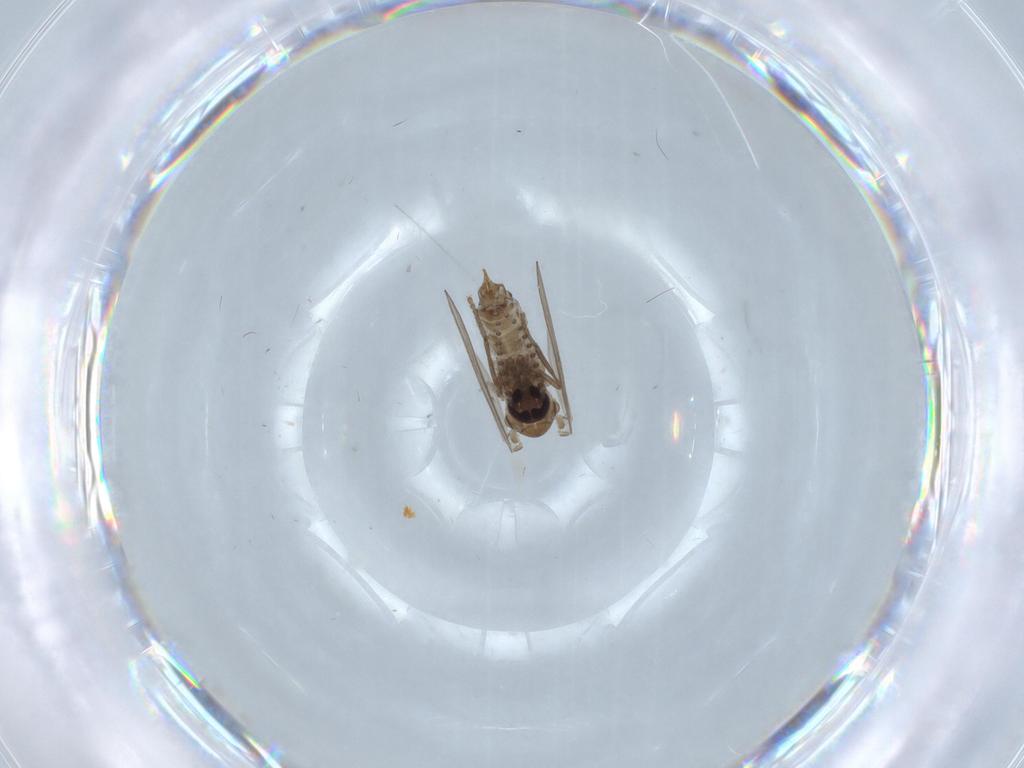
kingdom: Animalia
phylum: Arthropoda
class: Insecta
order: Diptera
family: Psychodidae
